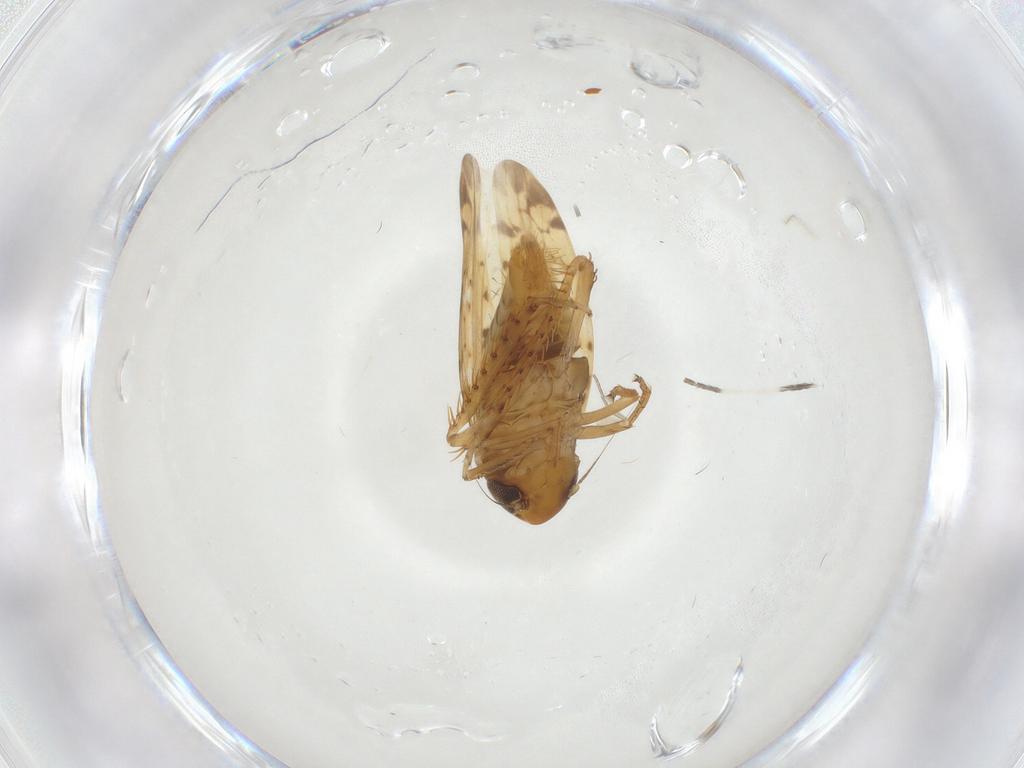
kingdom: Animalia
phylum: Arthropoda
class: Insecta
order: Hemiptera
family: Cicadellidae
